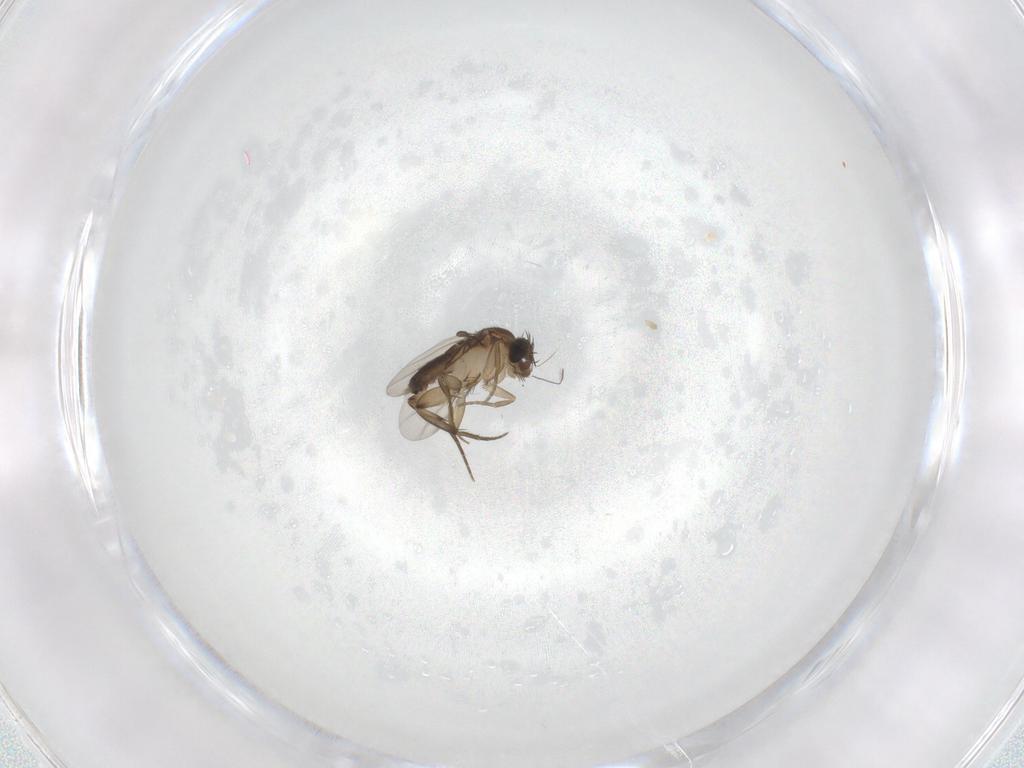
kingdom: Animalia
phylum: Arthropoda
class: Insecta
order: Diptera
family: Phoridae
